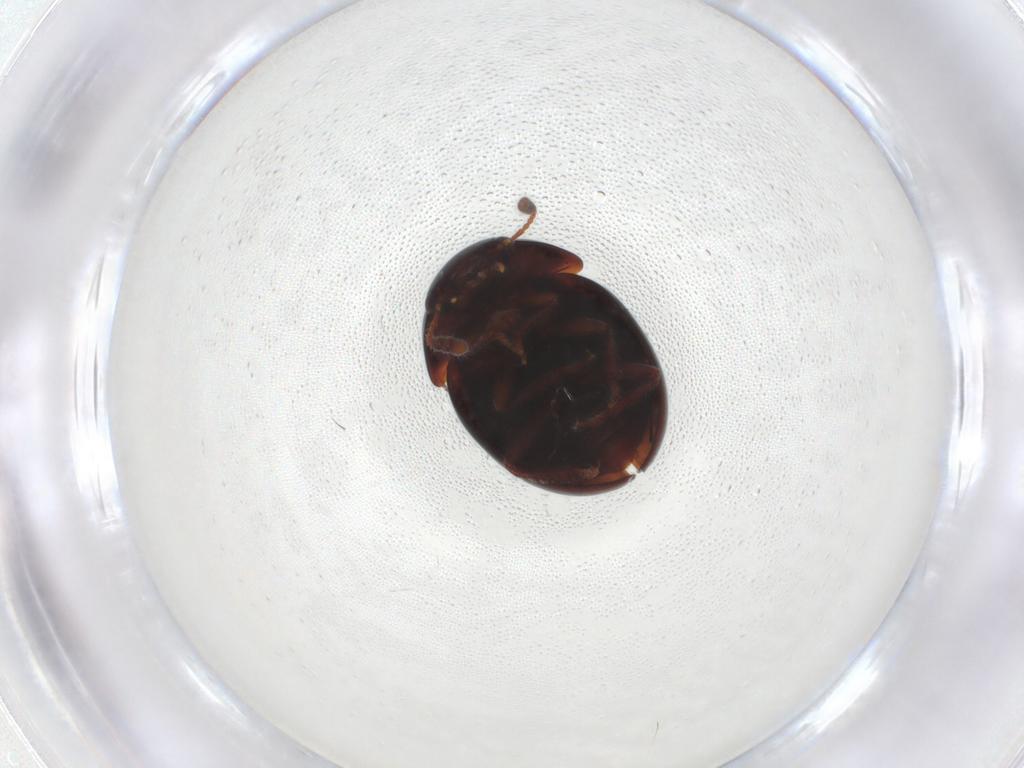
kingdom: Animalia
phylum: Arthropoda
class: Insecta
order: Coleoptera
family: Leiodidae
